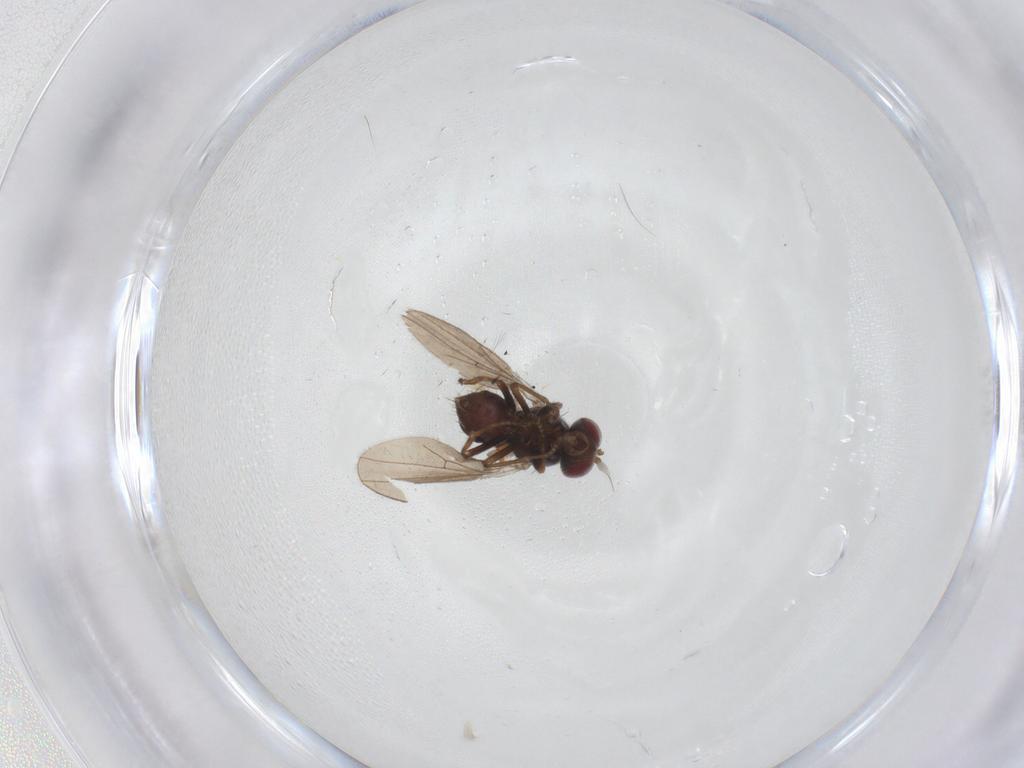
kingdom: Animalia
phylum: Arthropoda
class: Insecta
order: Diptera
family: Ephydridae
